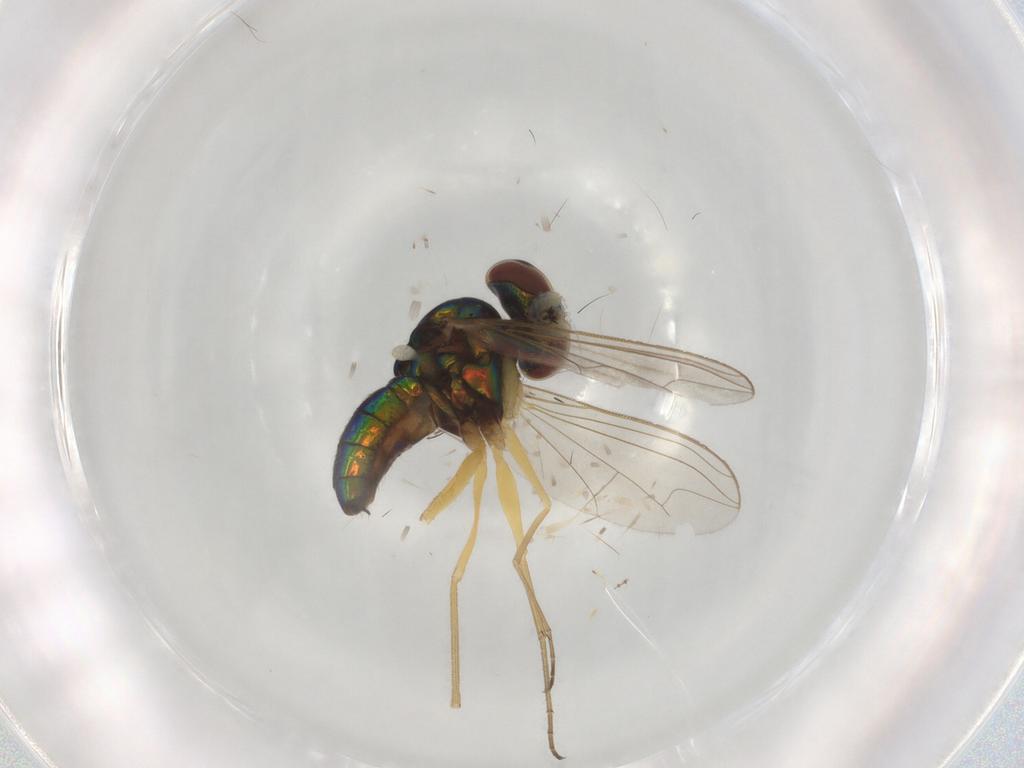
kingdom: Animalia
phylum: Arthropoda
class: Insecta
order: Diptera
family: Dolichopodidae
